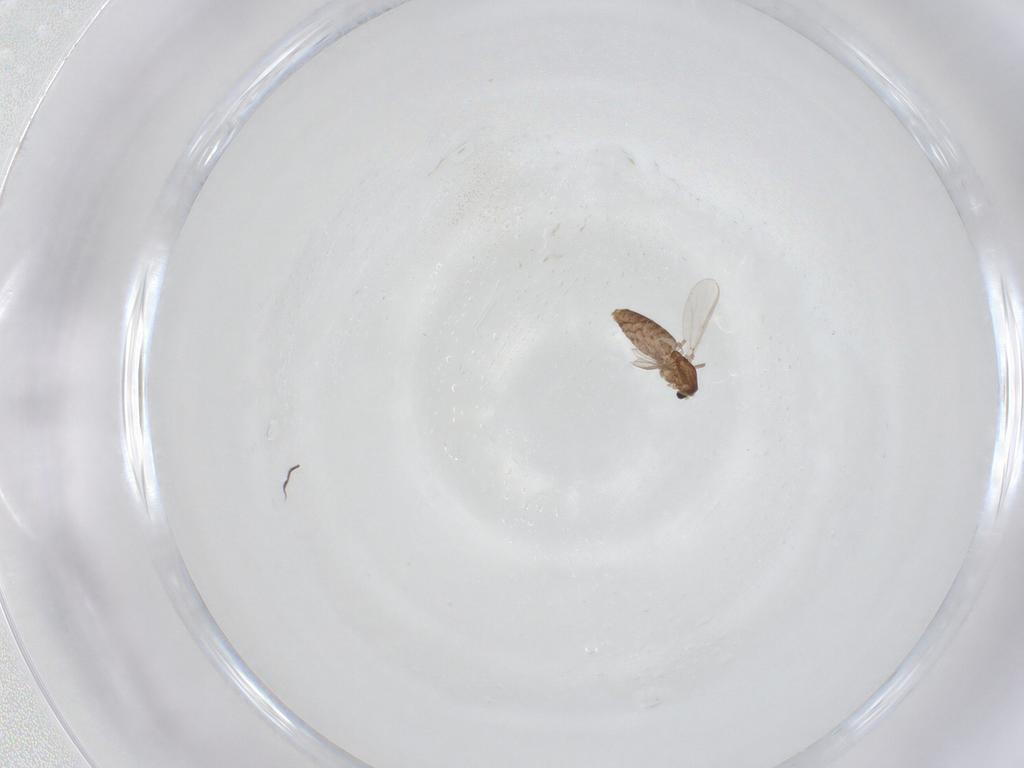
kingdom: Animalia
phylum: Arthropoda
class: Insecta
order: Diptera
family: Chironomidae
